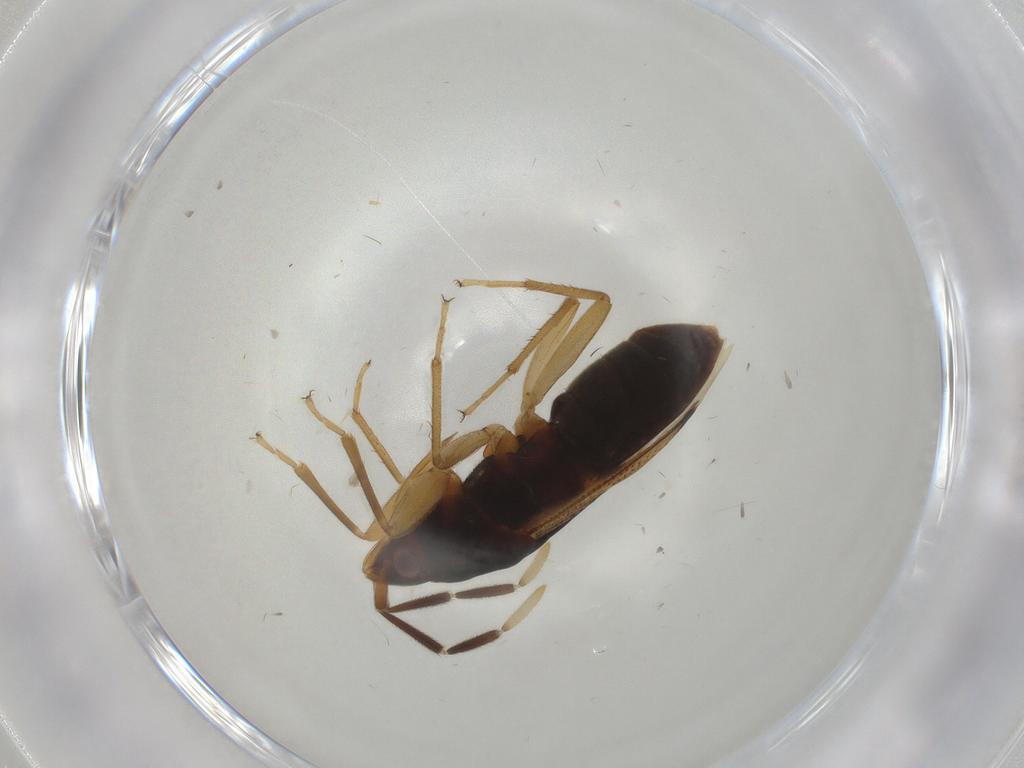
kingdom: Animalia
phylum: Arthropoda
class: Insecta
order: Hemiptera
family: Rhyparochromidae
